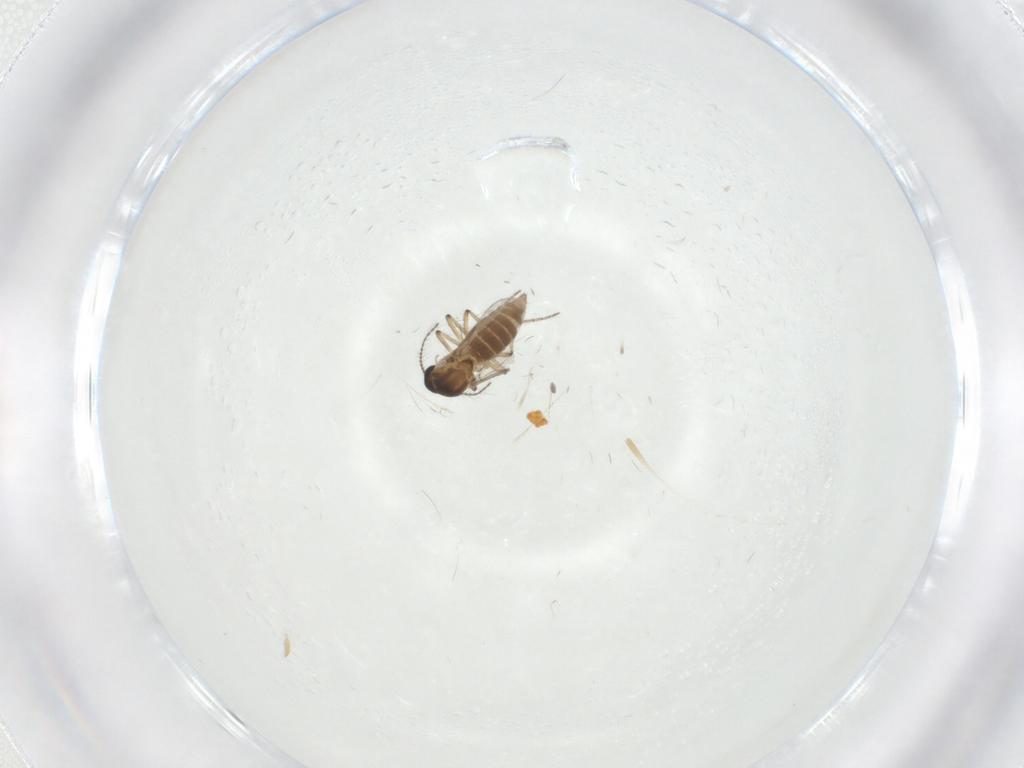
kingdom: Animalia
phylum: Arthropoda
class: Insecta
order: Diptera
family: Ceratopogonidae
